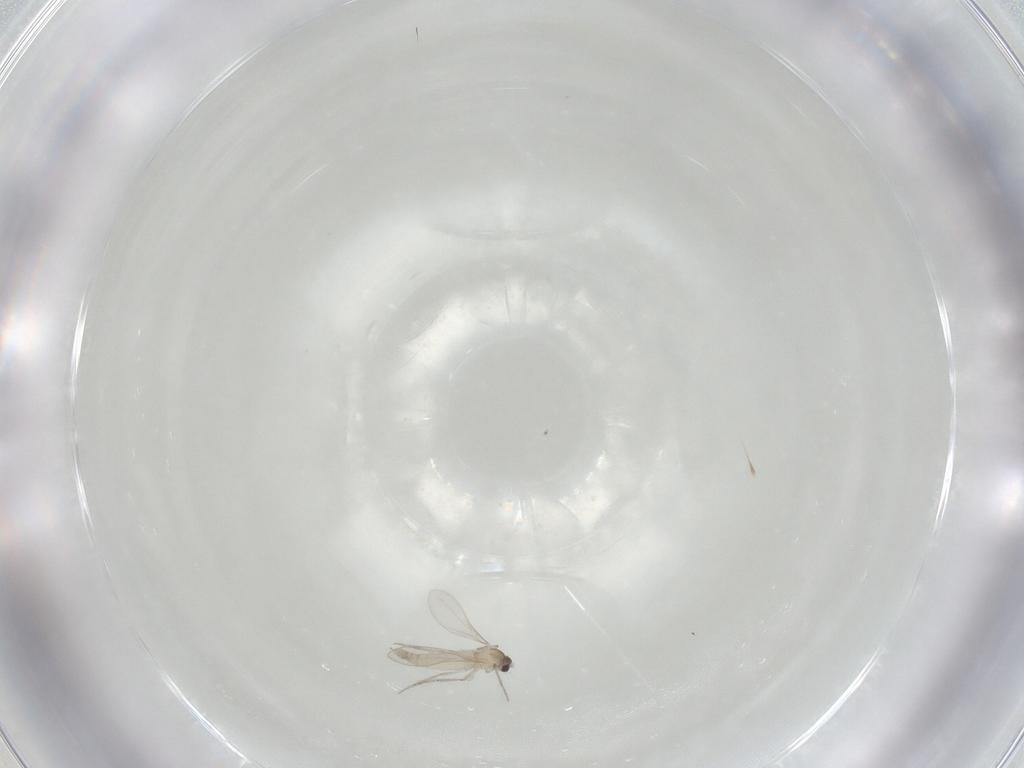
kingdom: Animalia
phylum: Arthropoda
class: Insecta
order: Diptera
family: Cecidomyiidae
